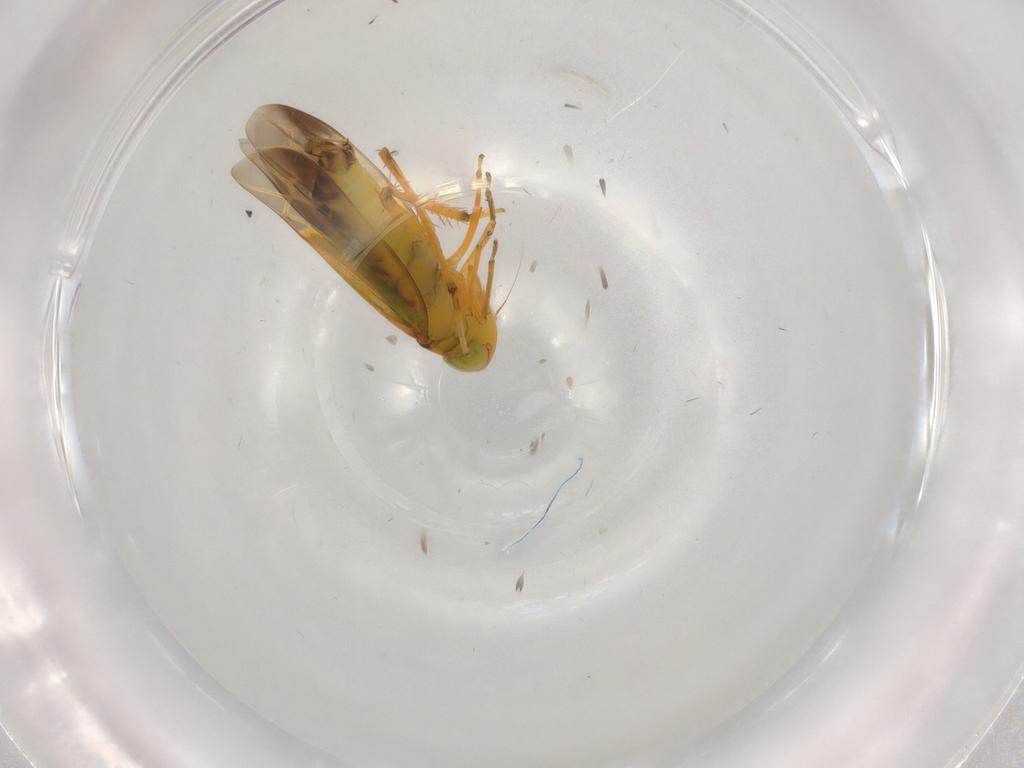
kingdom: Animalia
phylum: Arthropoda
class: Insecta
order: Hemiptera
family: Cicadellidae
